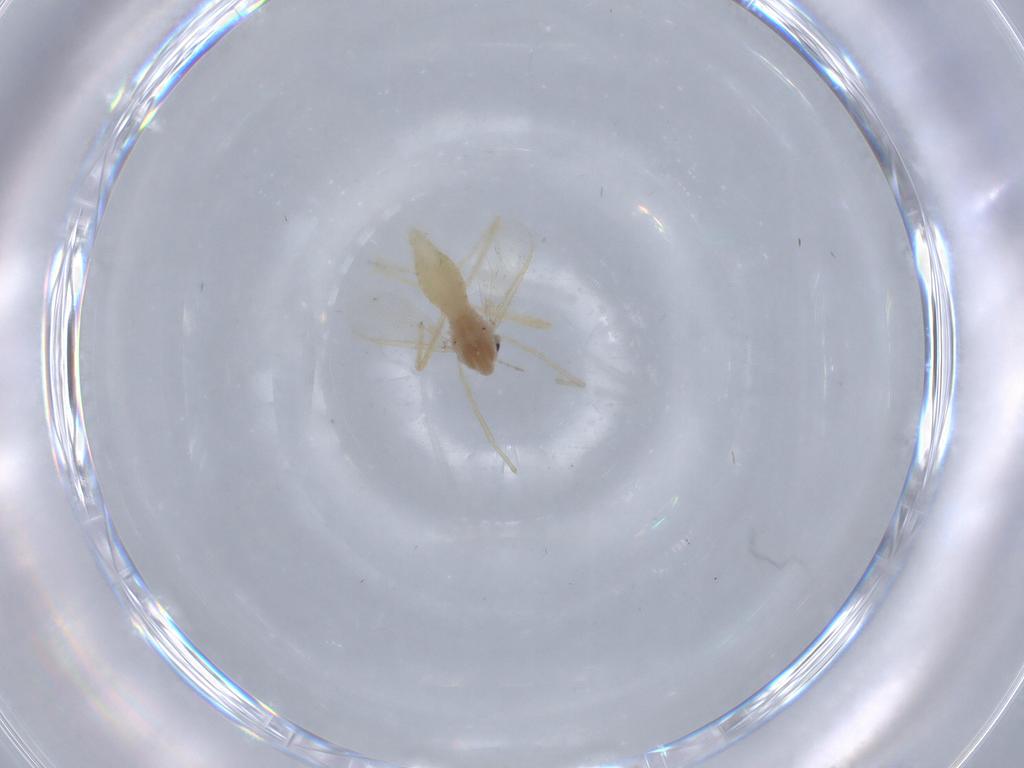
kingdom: Animalia
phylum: Arthropoda
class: Insecta
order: Diptera
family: Chironomidae
